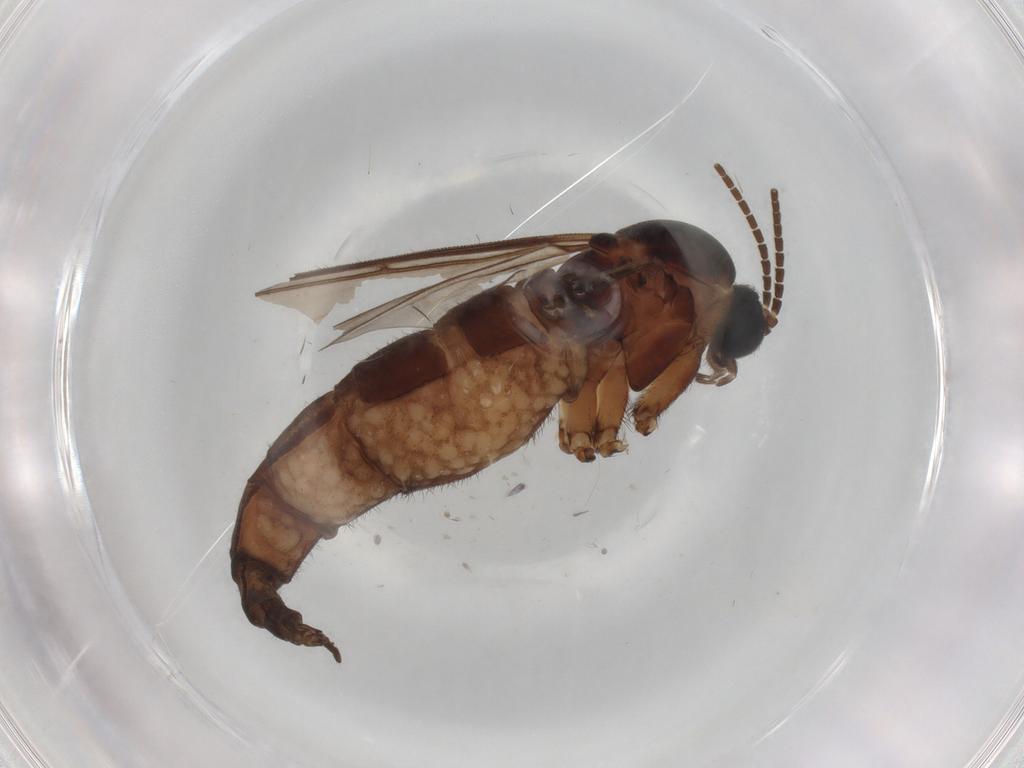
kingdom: Animalia
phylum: Arthropoda
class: Insecta
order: Diptera
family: Sciaridae
